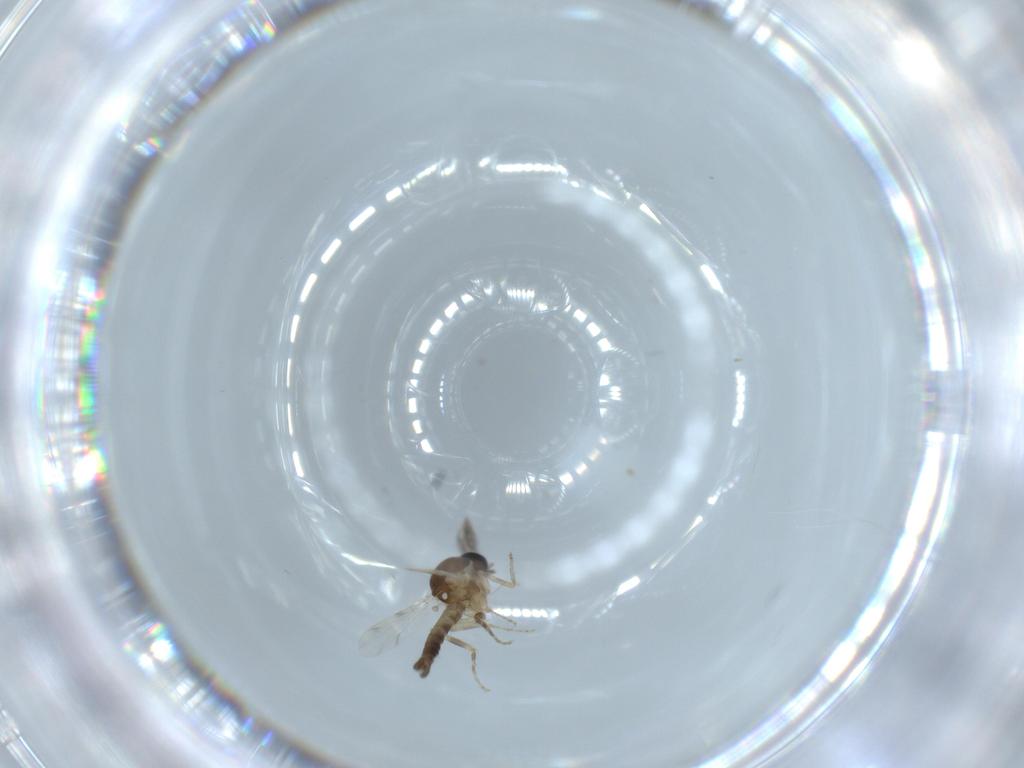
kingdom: Animalia
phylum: Arthropoda
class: Insecta
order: Diptera
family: Ceratopogonidae
